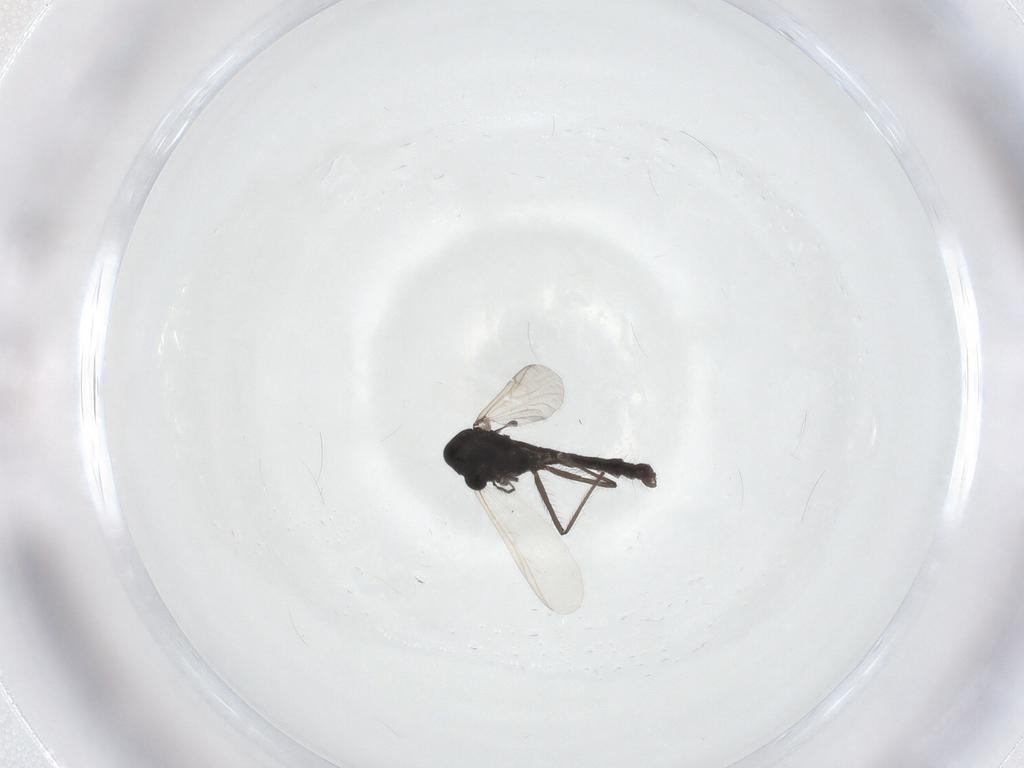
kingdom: Animalia
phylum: Arthropoda
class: Insecta
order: Diptera
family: Chironomidae
